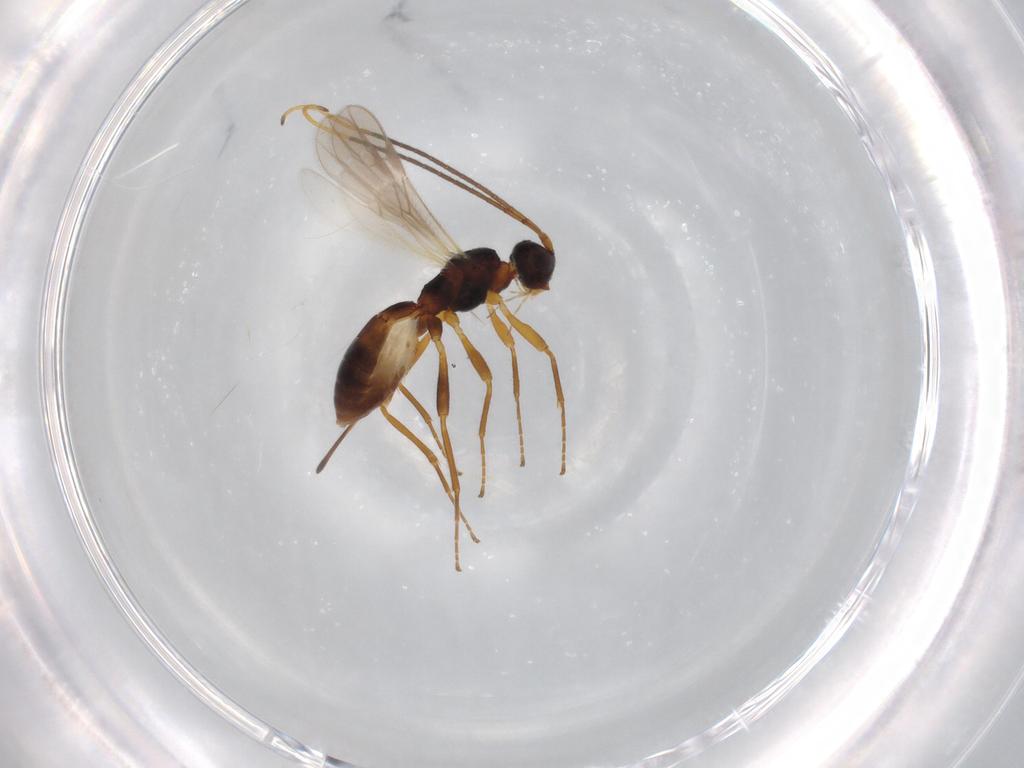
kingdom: Animalia
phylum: Arthropoda
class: Insecta
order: Hymenoptera
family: Braconidae
